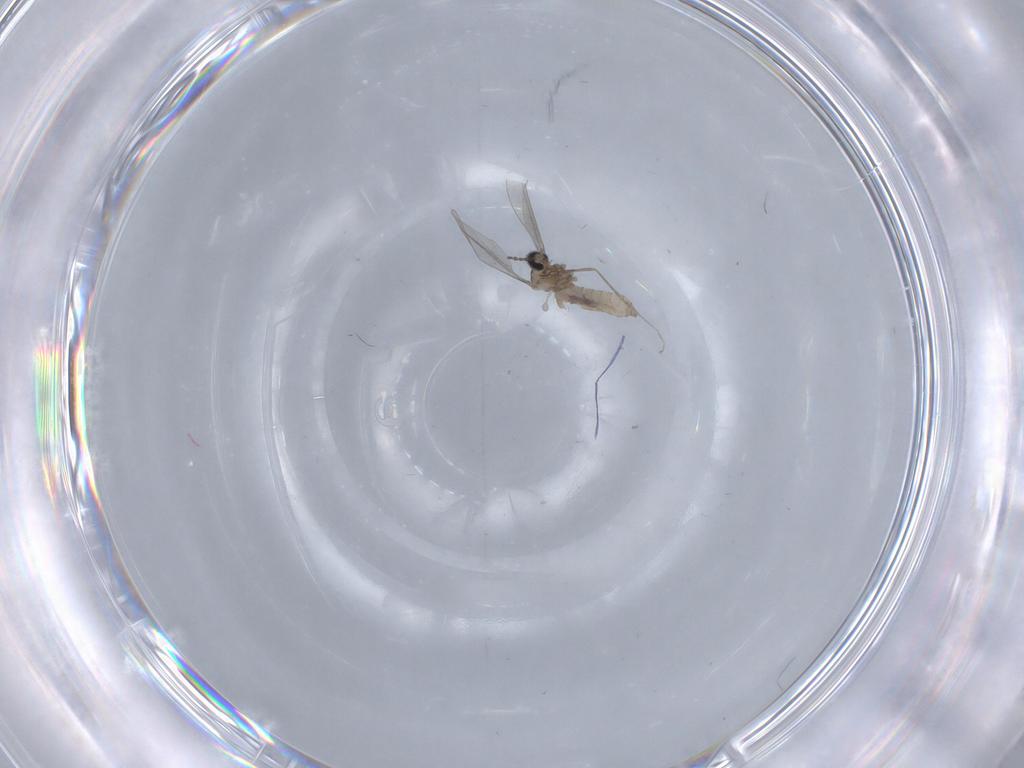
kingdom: Animalia
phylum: Arthropoda
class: Insecta
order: Diptera
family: Cecidomyiidae
